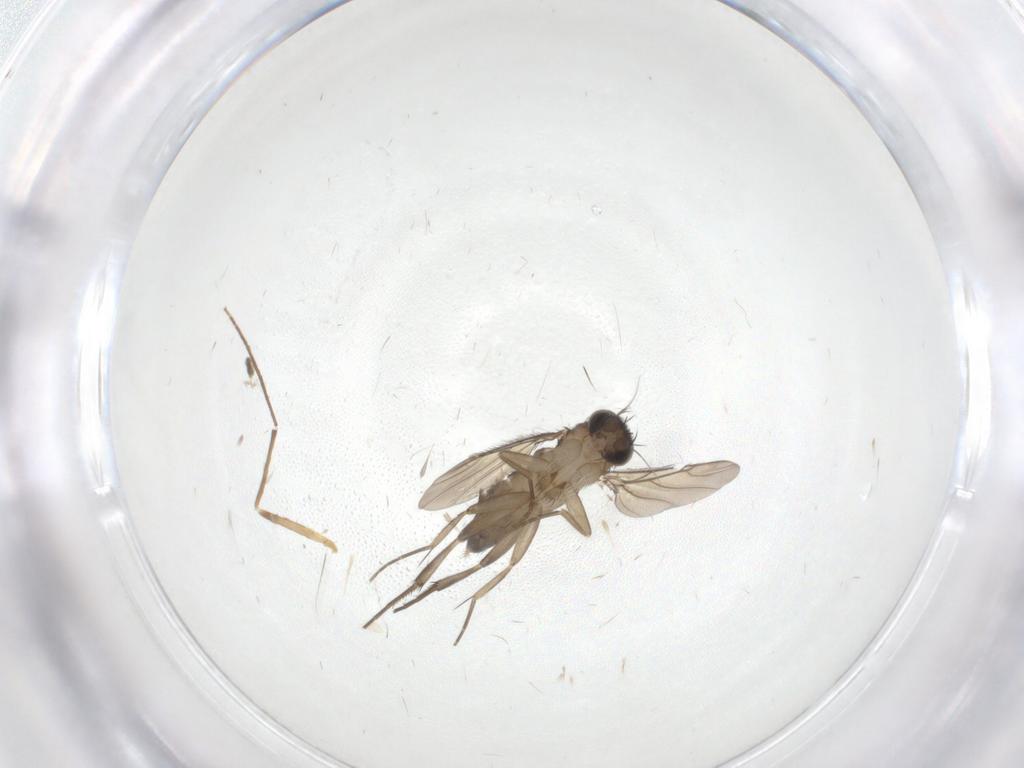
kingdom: Animalia
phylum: Arthropoda
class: Insecta
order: Diptera
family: Phoridae
